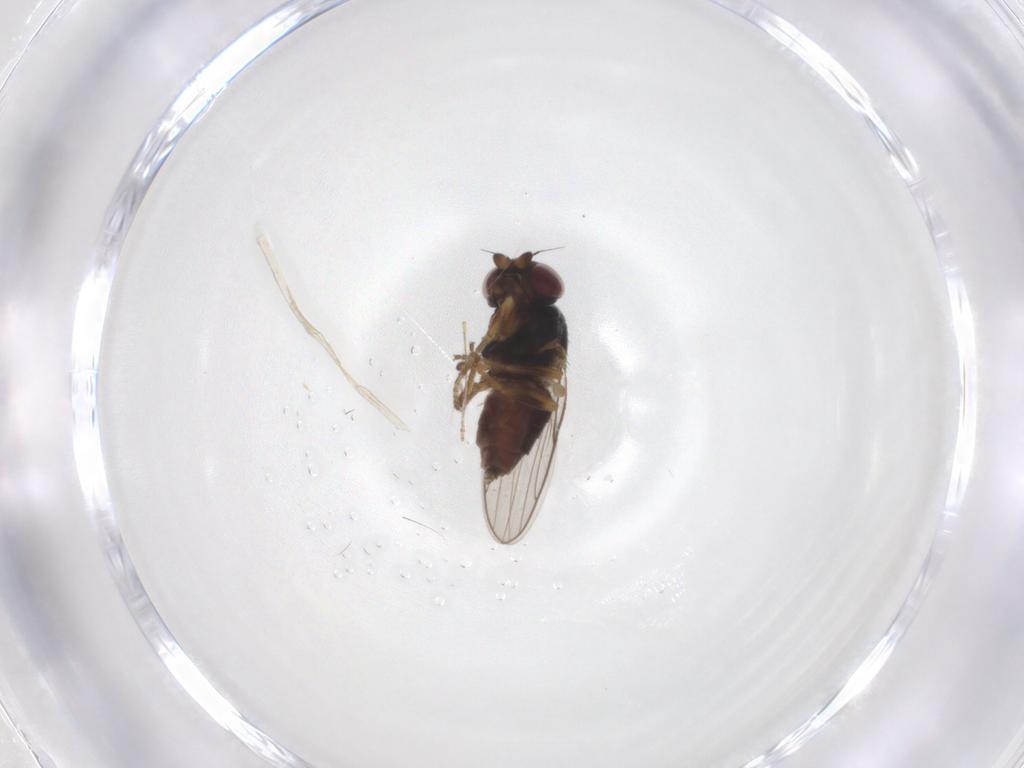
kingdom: Animalia
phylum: Arthropoda
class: Insecta
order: Diptera
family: Chloropidae
